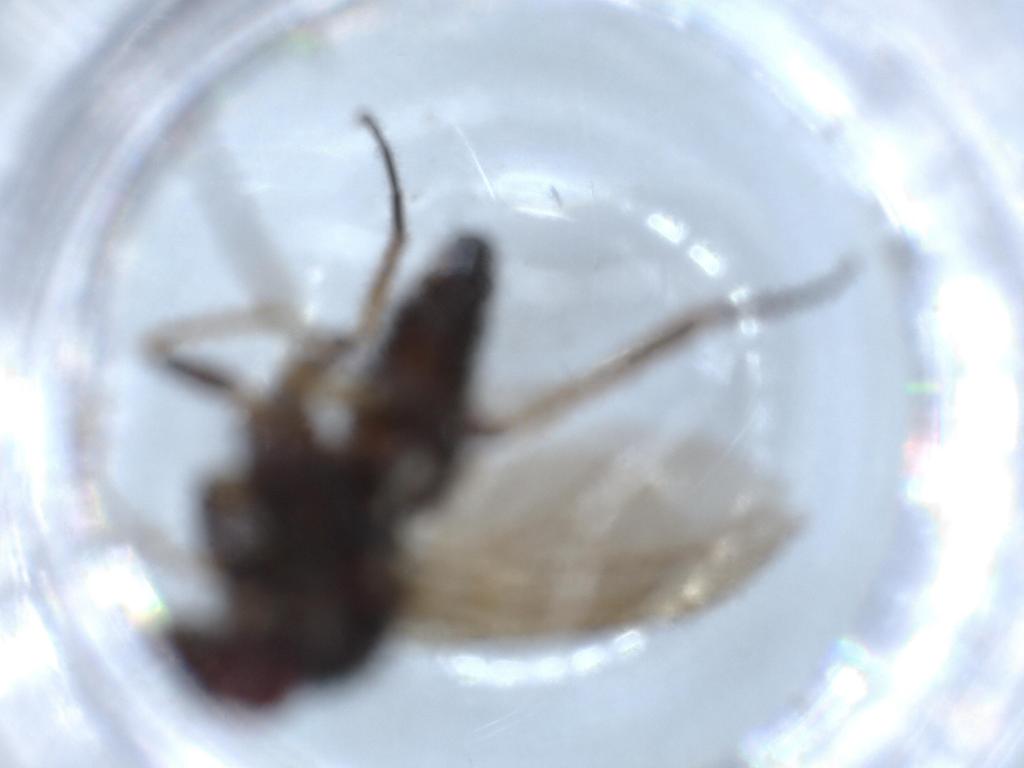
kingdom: Animalia
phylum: Arthropoda
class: Insecta
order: Diptera
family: Dolichopodidae
